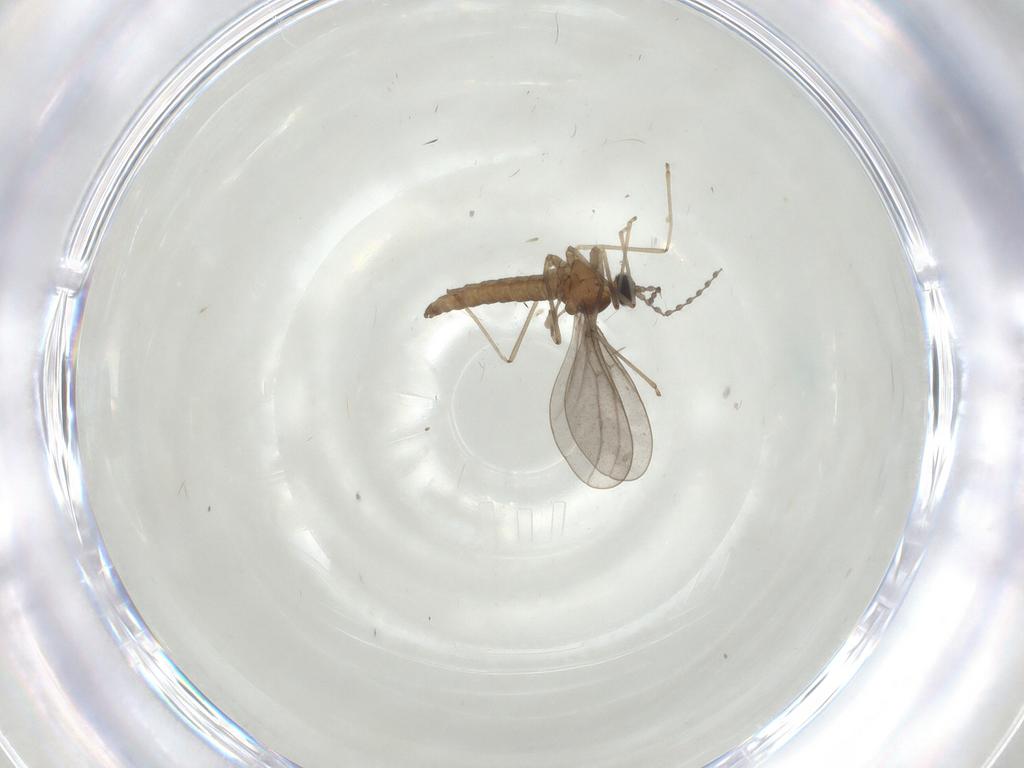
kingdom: Animalia
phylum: Arthropoda
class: Insecta
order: Diptera
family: Cecidomyiidae
